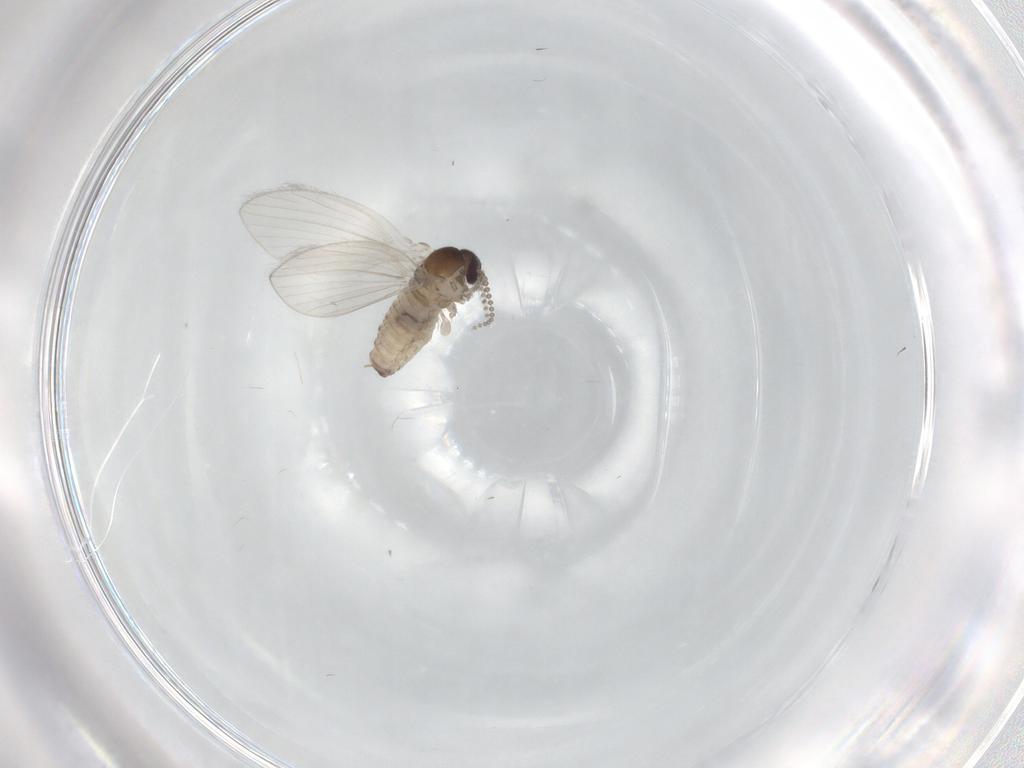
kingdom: Animalia
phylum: Arthropoda
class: Insecta
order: Diptera
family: Psychodidae
